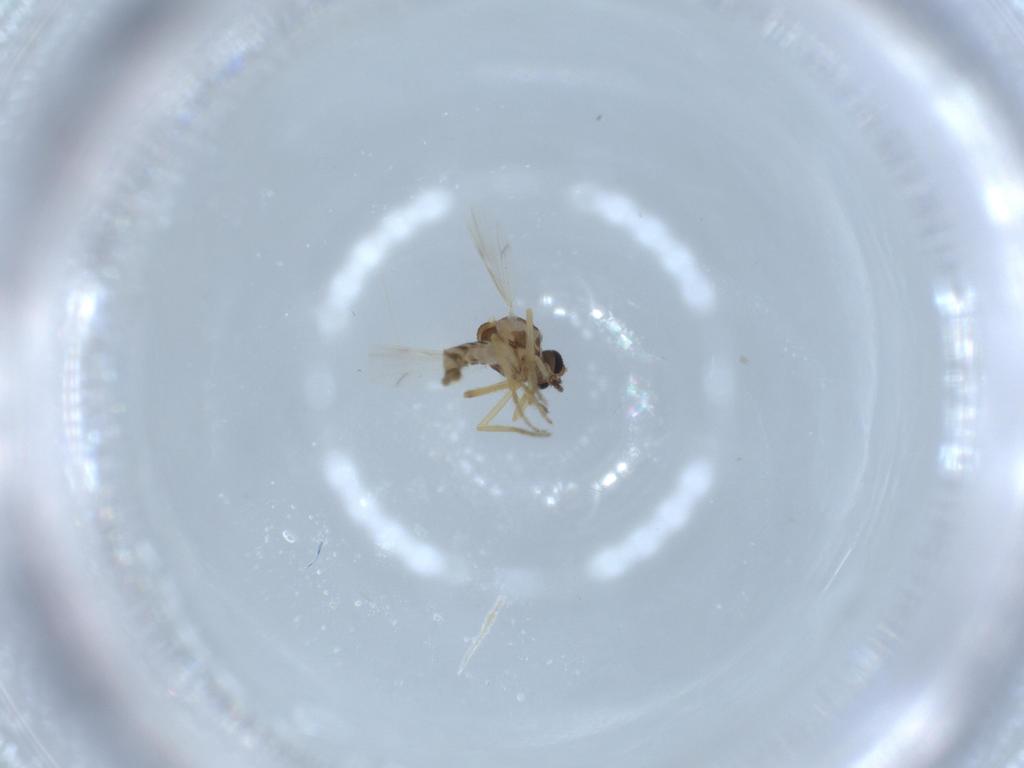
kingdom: Animalia
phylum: Arthropoda
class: Insecta
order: Diptera
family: Ceratopogonidae
